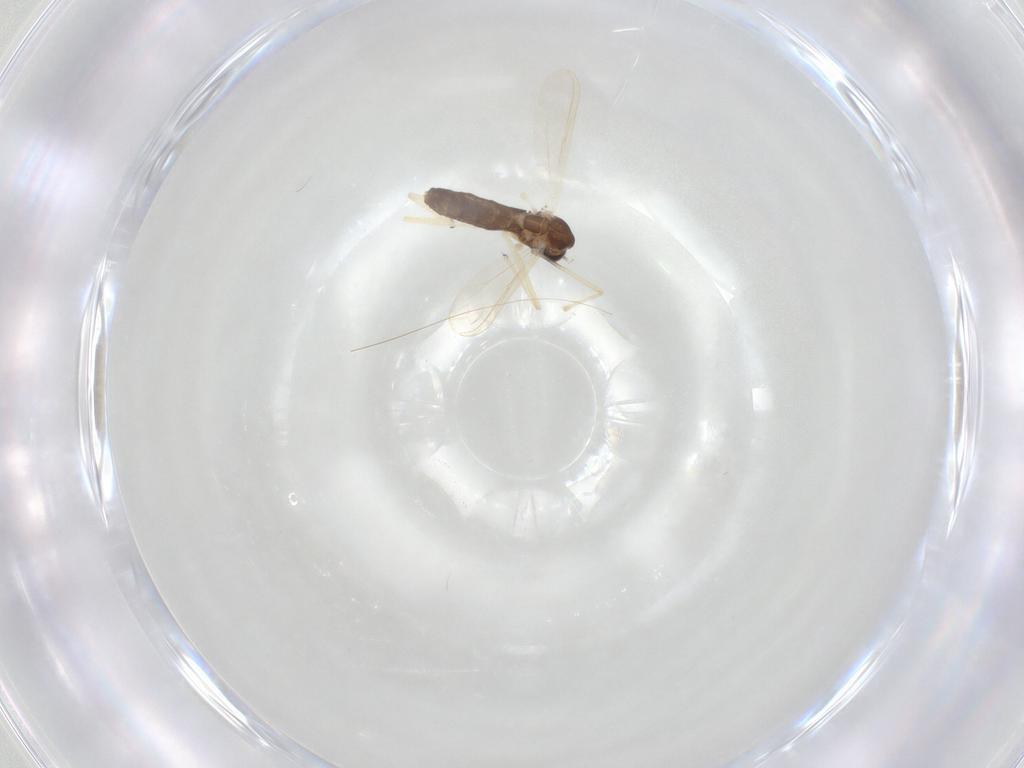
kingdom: Animalia
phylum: Arthropoda
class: Insecta
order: Diptera
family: Chironomidae
